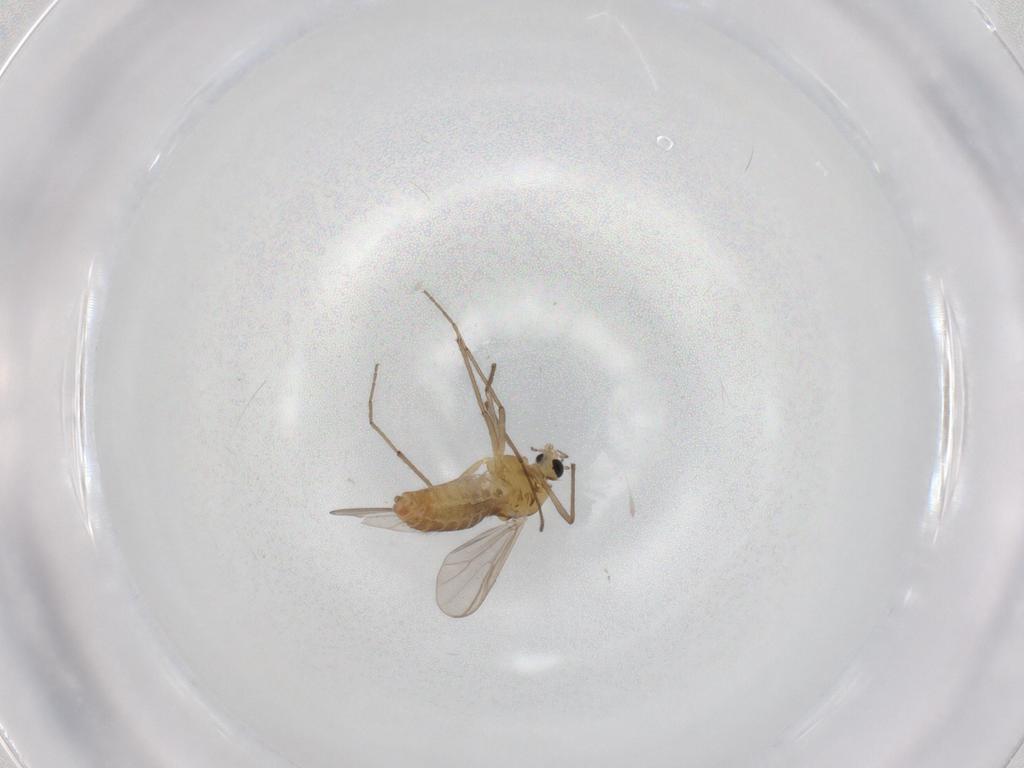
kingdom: Animalia
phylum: Arthropoda
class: Insecta
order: Diptera
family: Chironomidae
